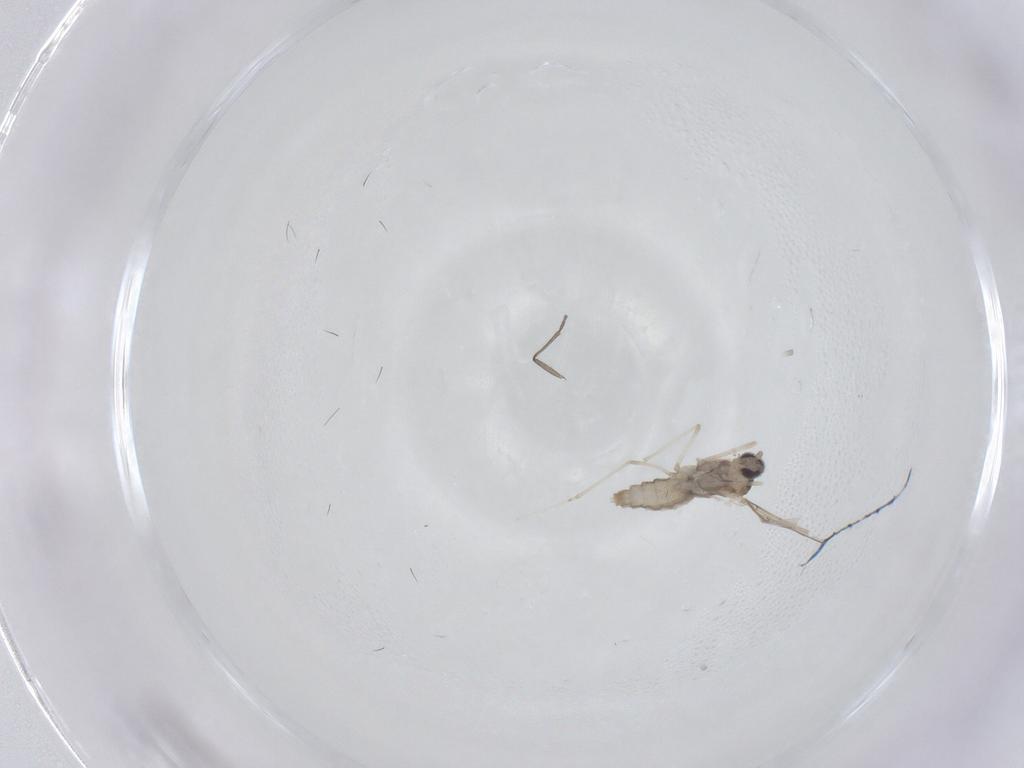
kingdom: Animalia
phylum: Arthropoda
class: Insecta
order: Diptera
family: Cecidomyiidae
